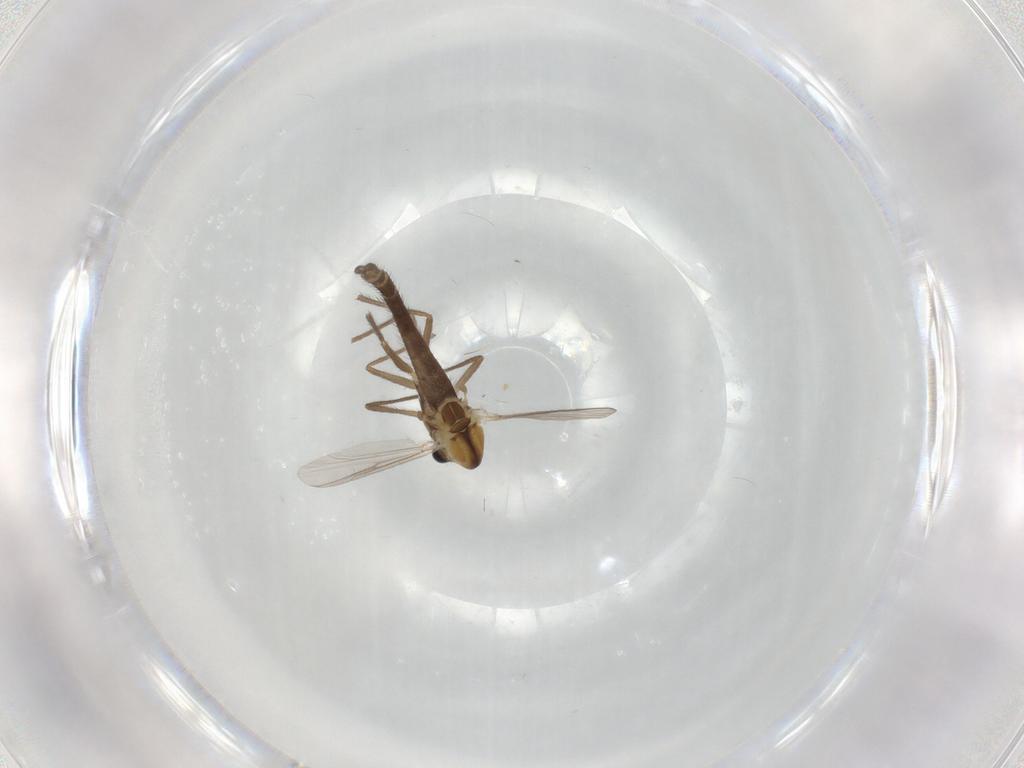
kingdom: Animalia
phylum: Arthropoda
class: Insecta
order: Diptera
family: Chironomidae
